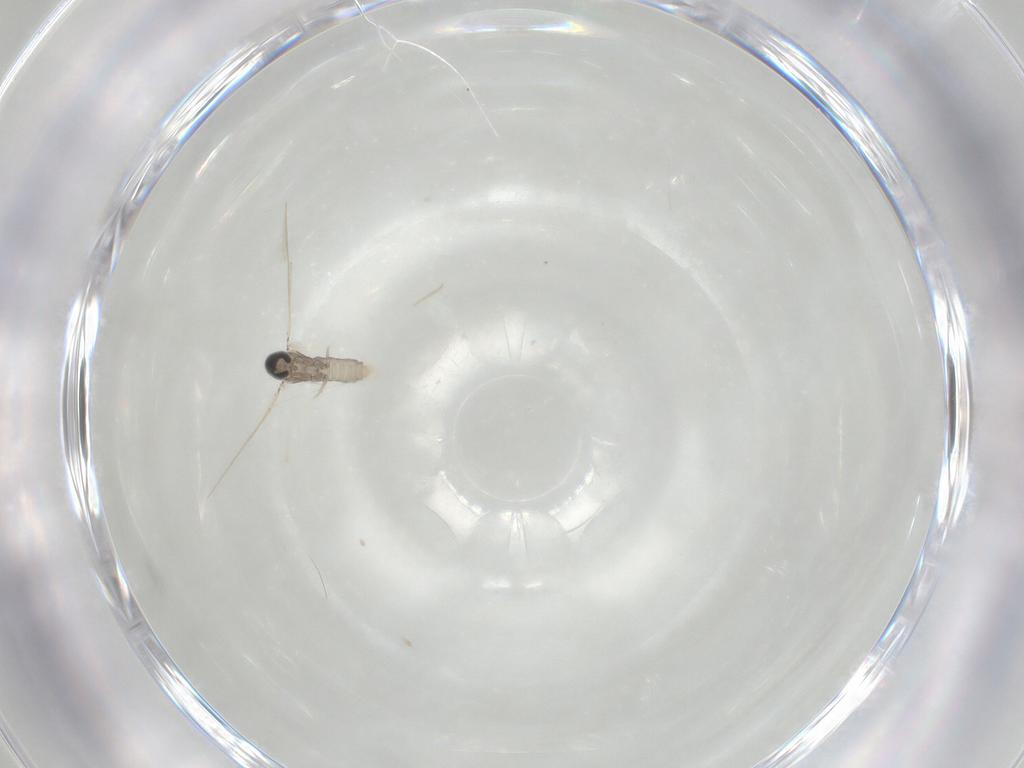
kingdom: Animalia
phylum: Arthropoda
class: Insecta
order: Diptera
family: Cecidomyiidae
